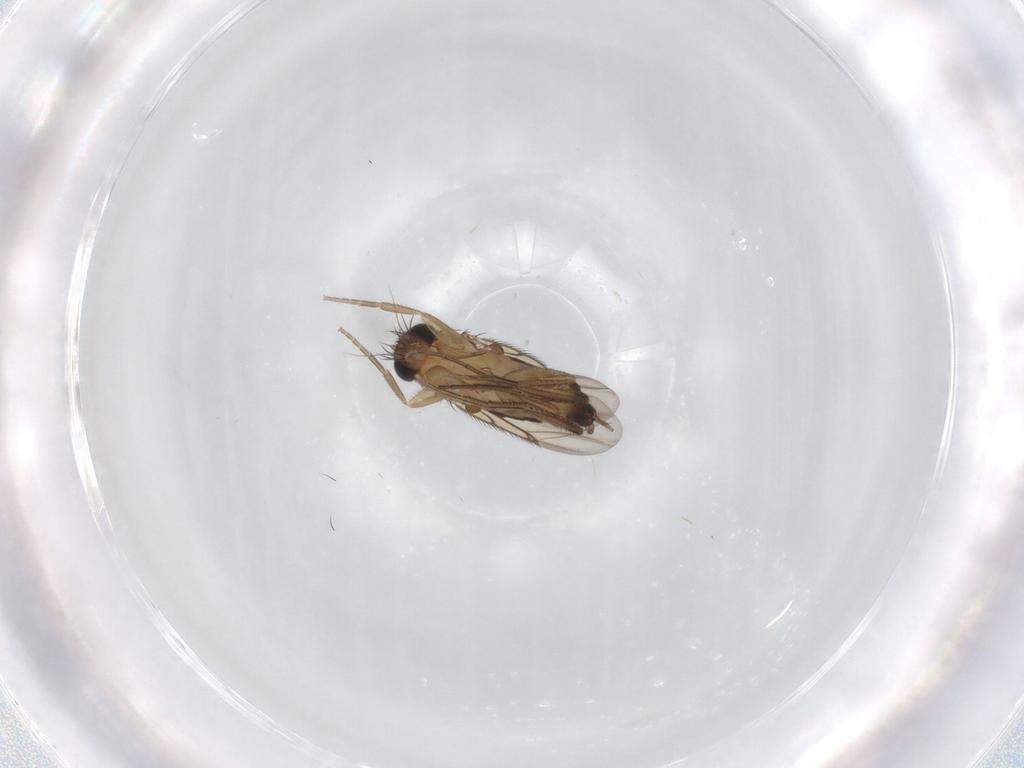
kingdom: Animalia
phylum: Arthropoda
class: Insecta
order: Diptera
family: Phoridae
